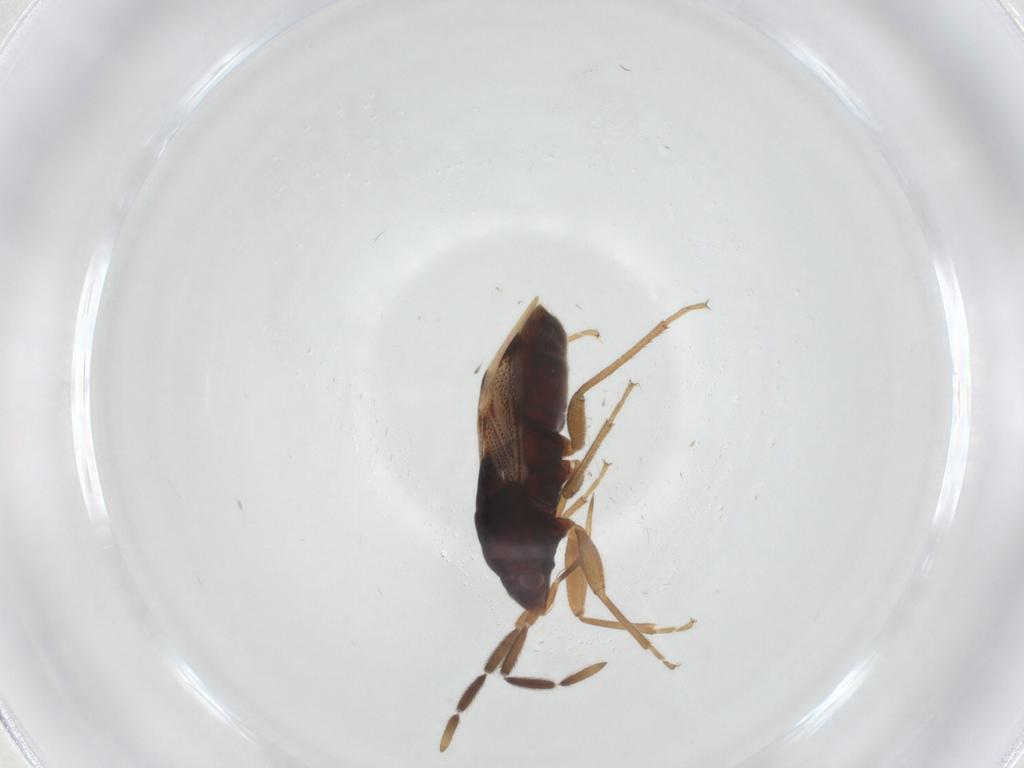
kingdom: Animalia
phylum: Arthropoda
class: Insecta
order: Hemiptera
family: Rhyparochromidae
